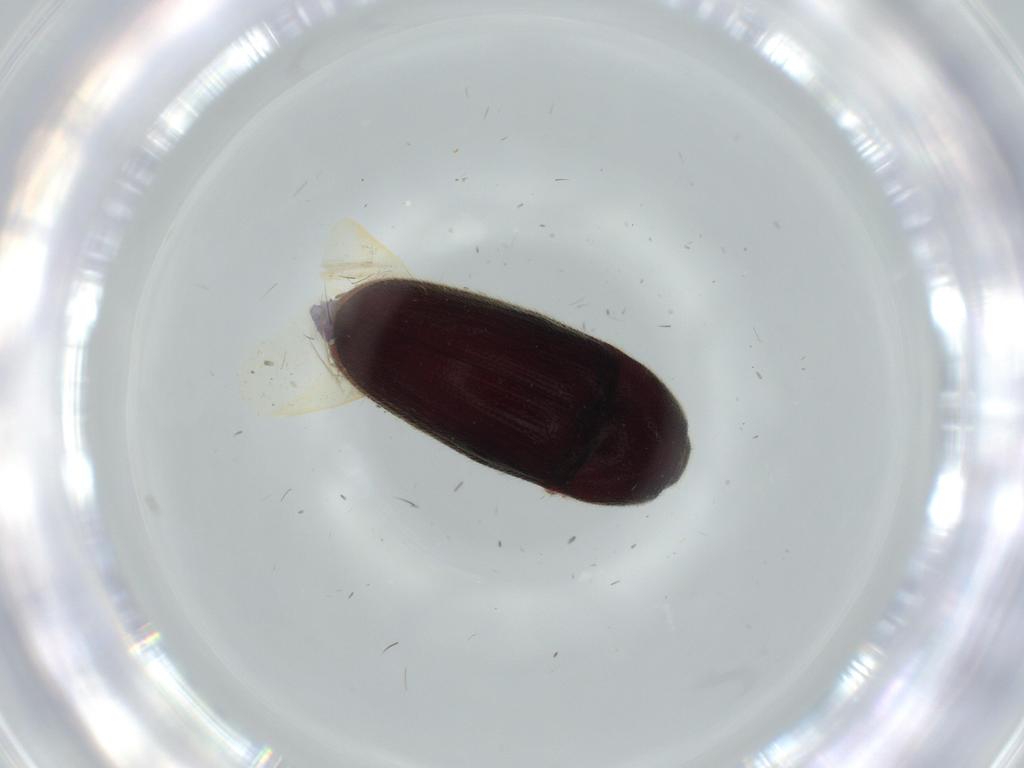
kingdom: Animalia
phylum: Arthropoda
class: Insecta
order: Coleoptera
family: Throscidae
